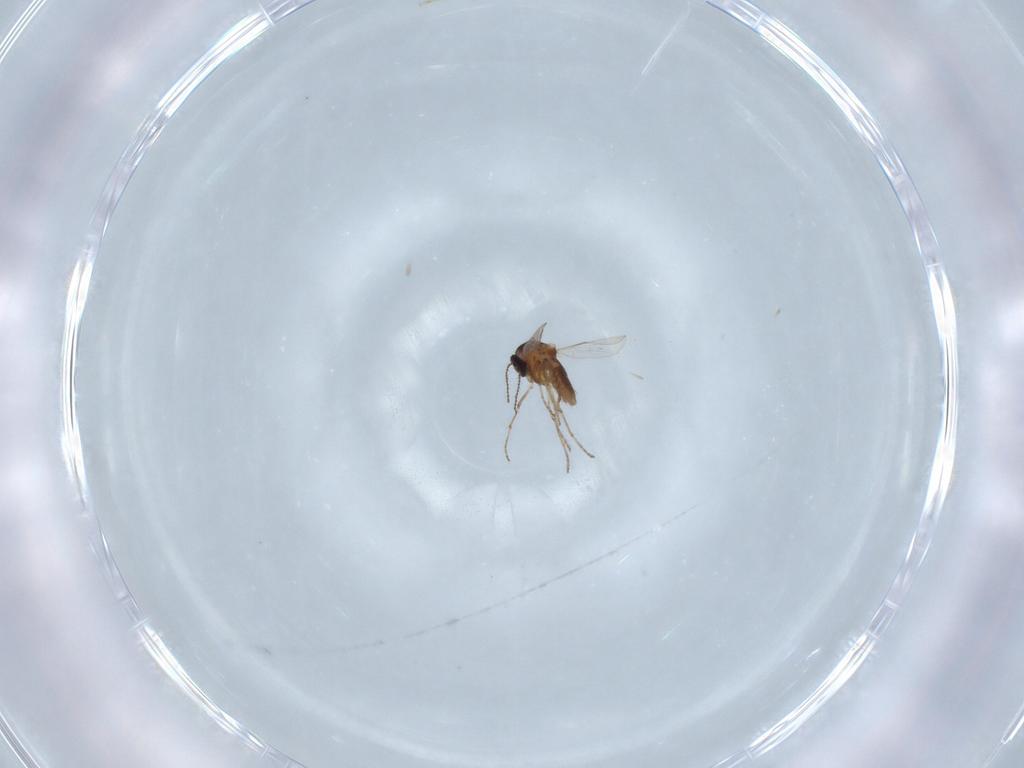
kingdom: Animalia
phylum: Arthropoda
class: Insecta
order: Diptera
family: Ceratopogonidae
